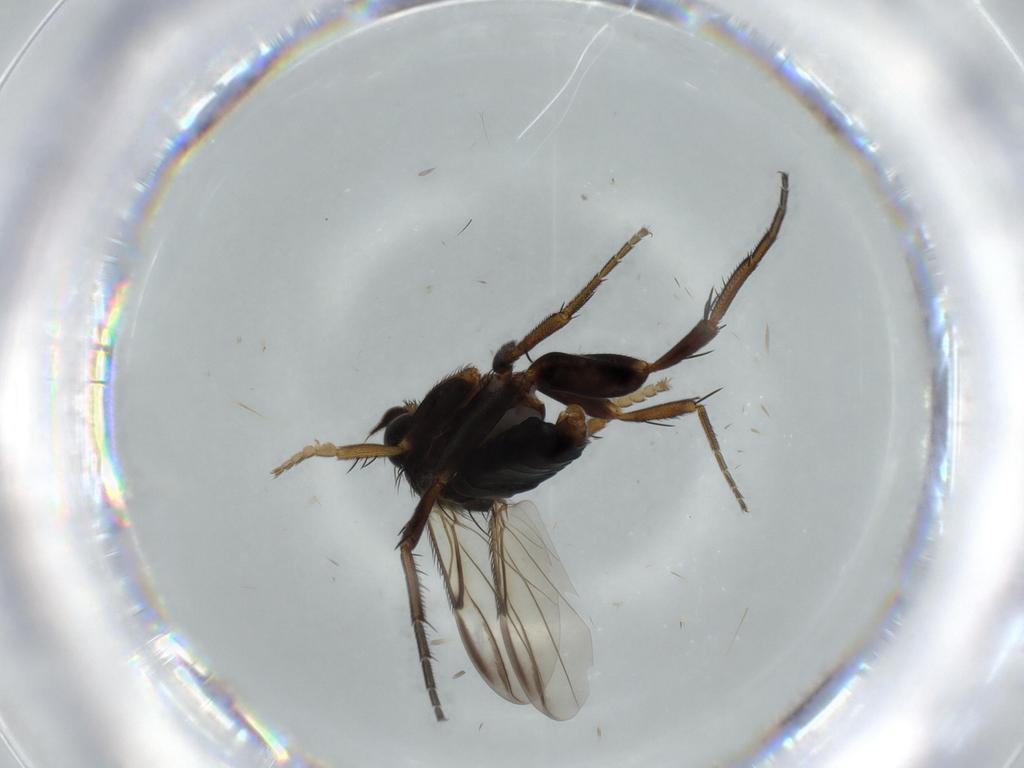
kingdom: Animalia
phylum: Arthropoda
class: Insecta
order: Diptera
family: Phoridae
